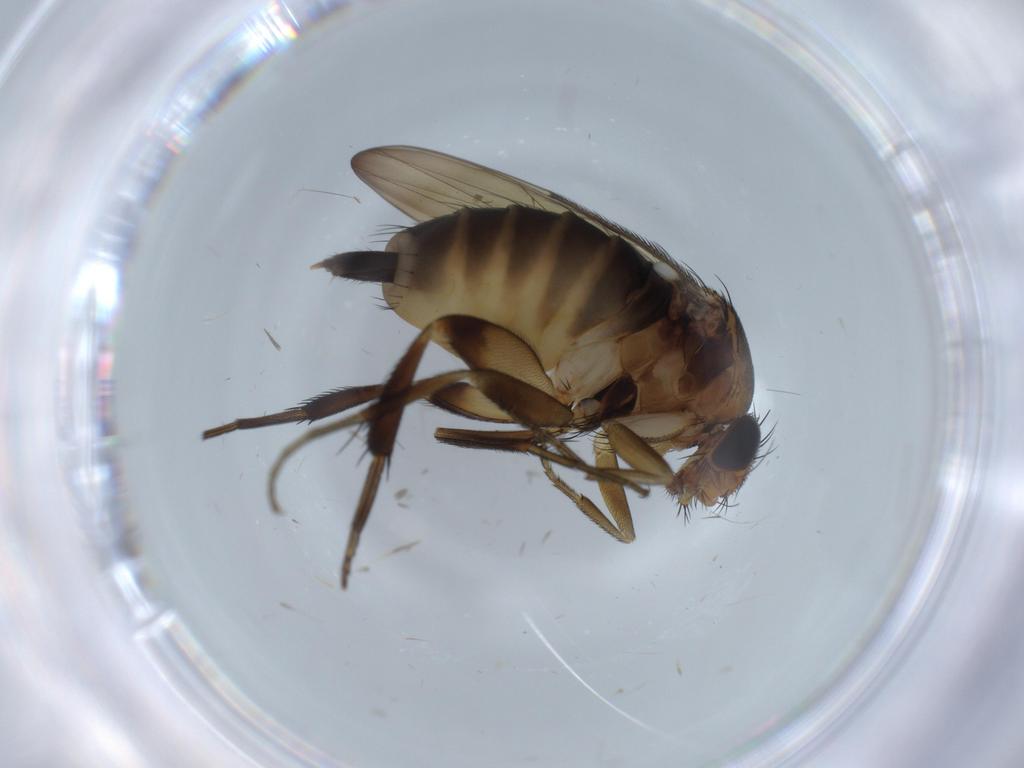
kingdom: Animalia
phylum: Arthropoda
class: Insecta
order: Diptera
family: Phoridae
